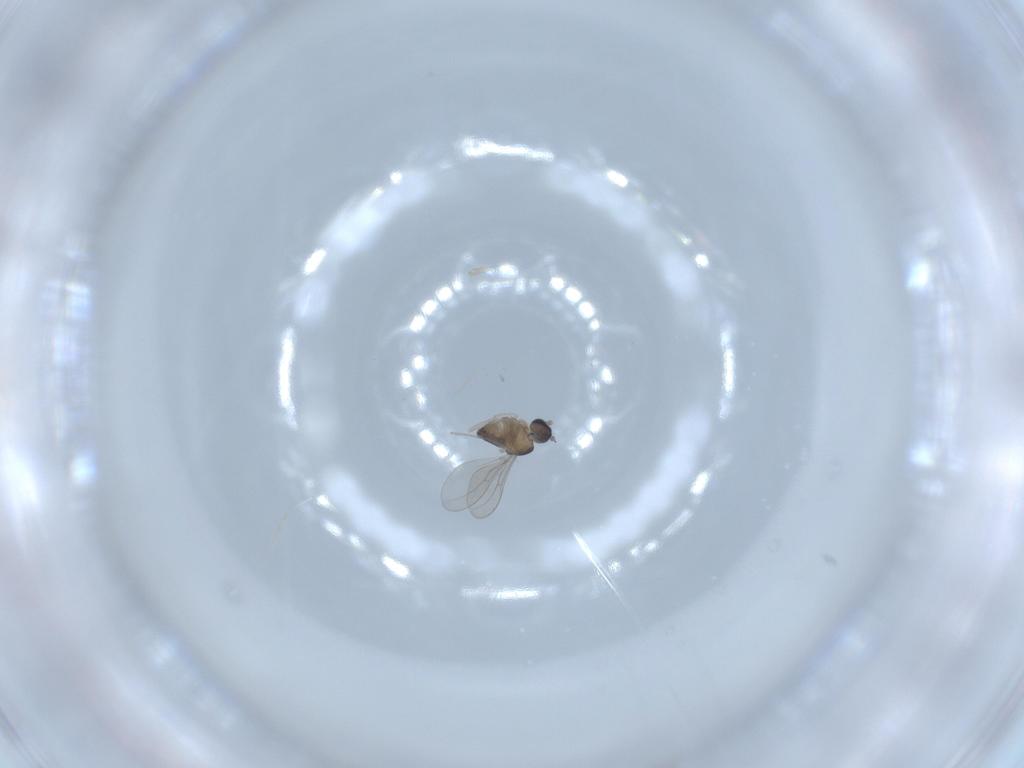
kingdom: Animalia
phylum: Arthropoda
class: Insecta
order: Diptera
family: Cecidomyiidae
